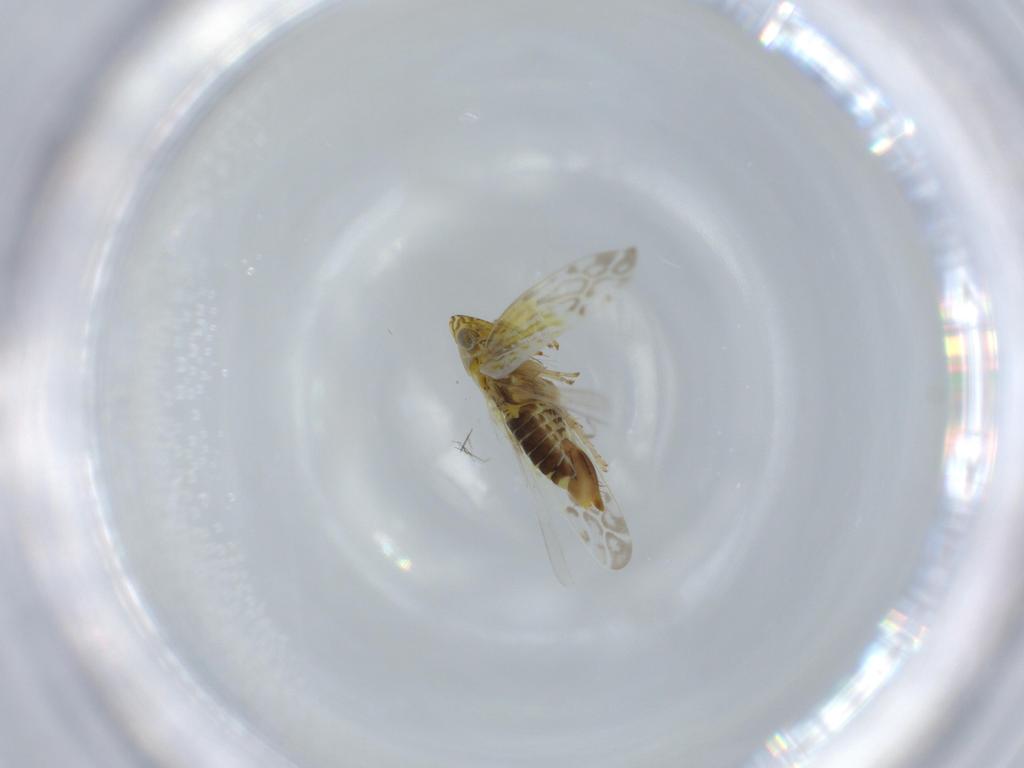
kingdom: Animalia
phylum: Arthropoda
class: Insecta
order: Hemiptera
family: Cicadellidae
